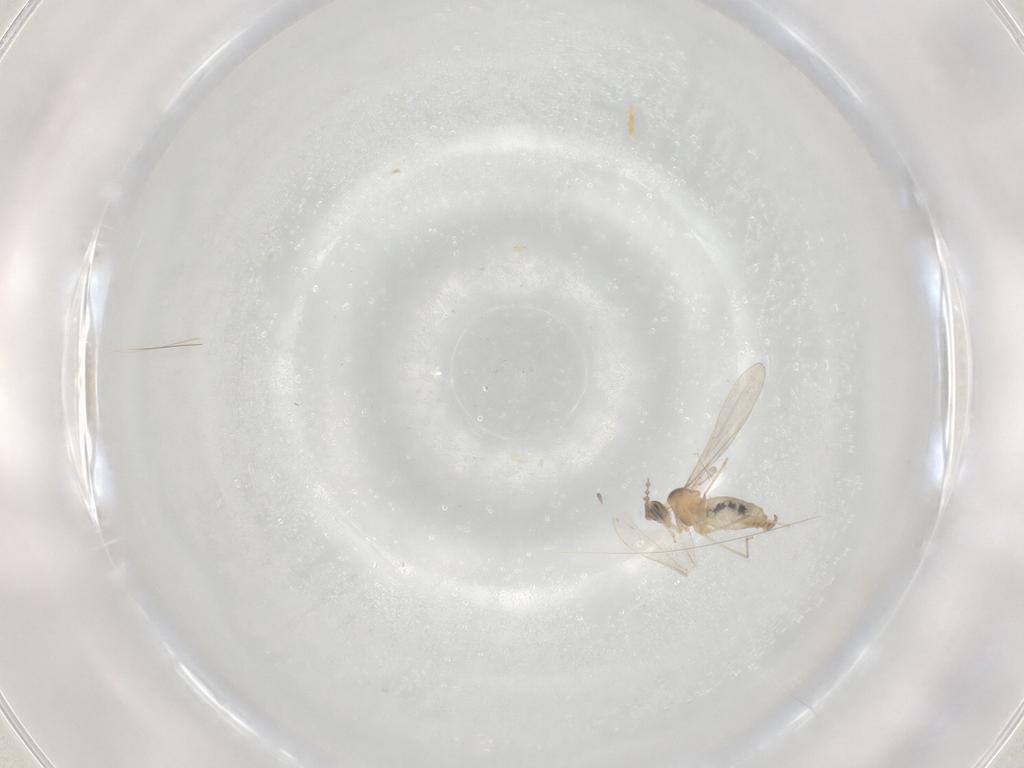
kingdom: Animalia
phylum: Arthropoda
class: Insecta
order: Diptera
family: Cecidomyiidae
